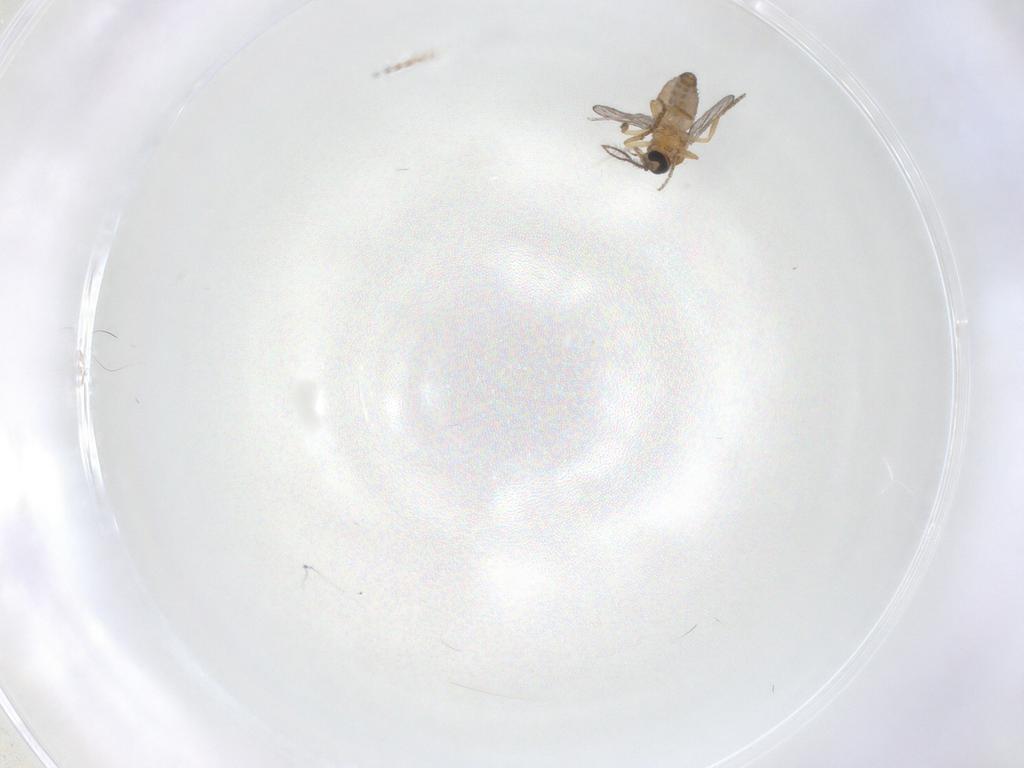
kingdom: Animalia
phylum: Arthropoda
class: Insecta
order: Diptera
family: Ceratopogonidae
